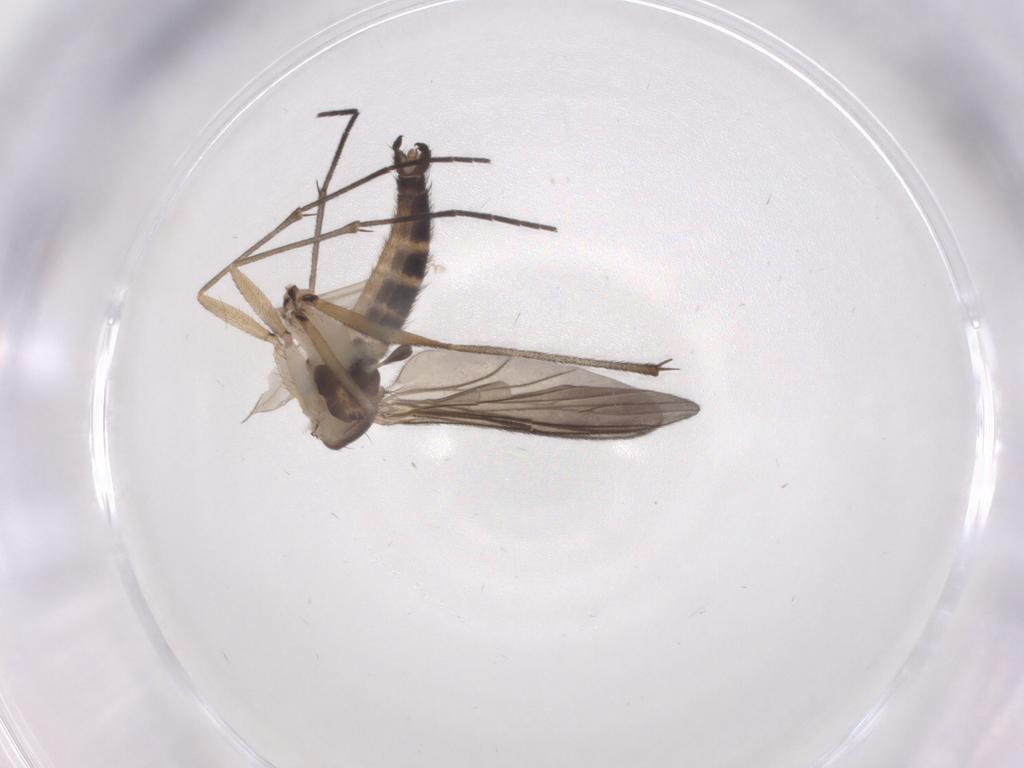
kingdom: Animalia
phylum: Arthropoda
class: Insecta
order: Diptera
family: Sciaridae
